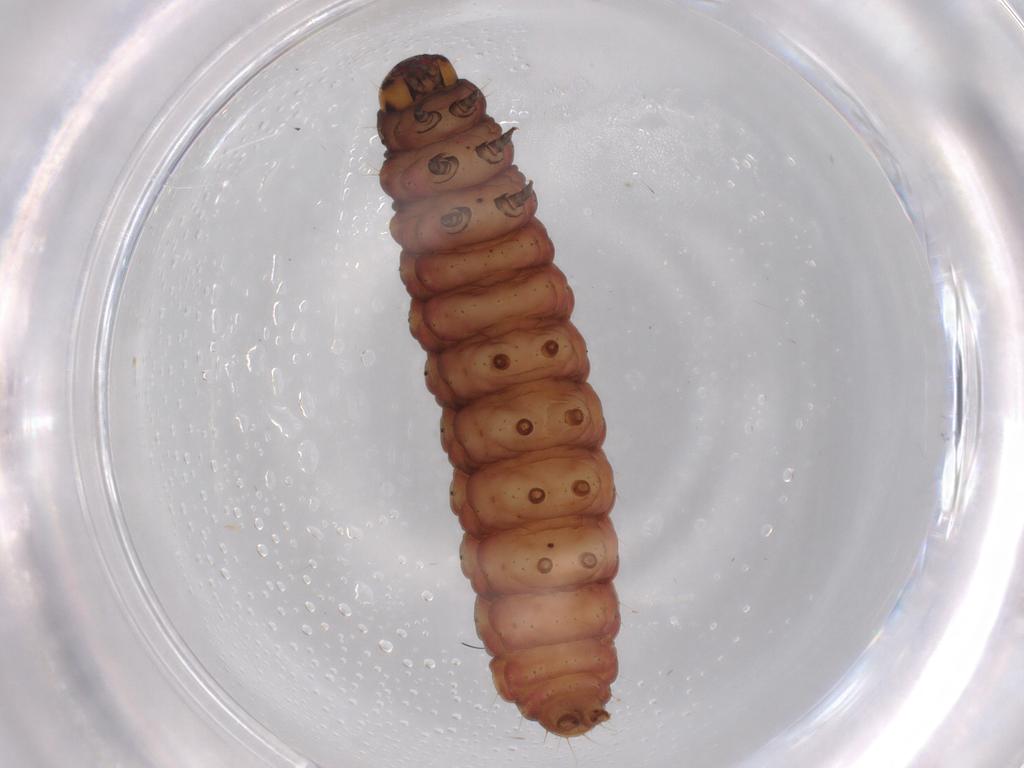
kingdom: Animalia
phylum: Arthropoda
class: Insecta
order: Lepidoptera
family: Noctuidae
